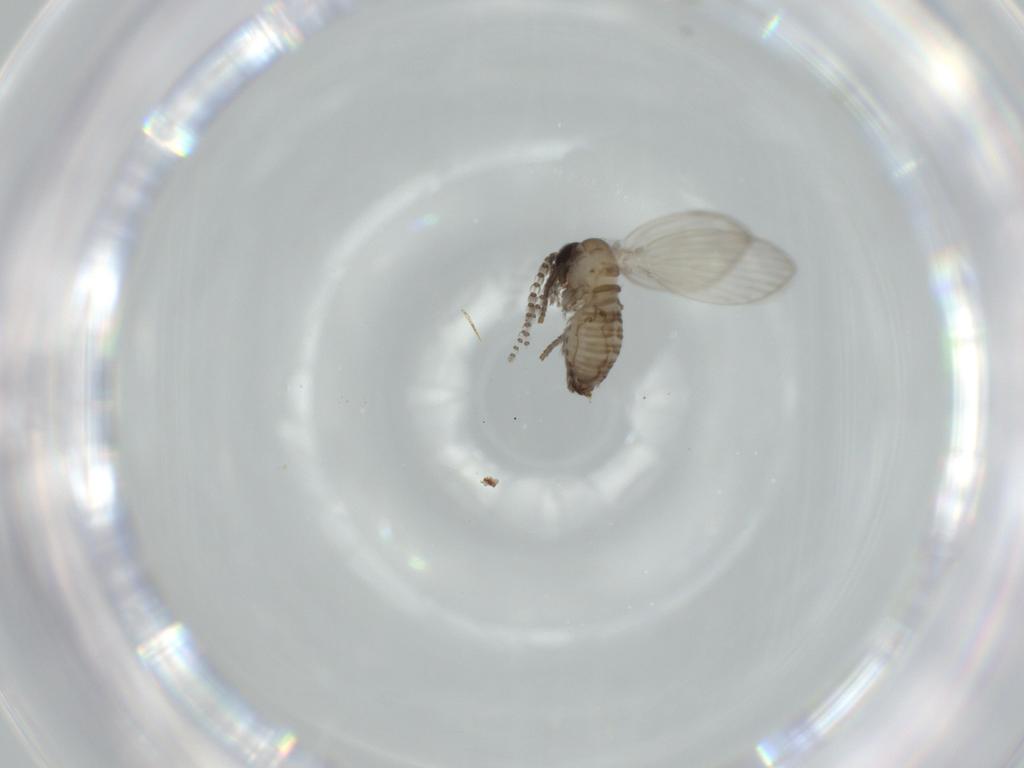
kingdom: Animalia
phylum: Arthropoda
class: Insecta
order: Diptera
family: Psychodidae
